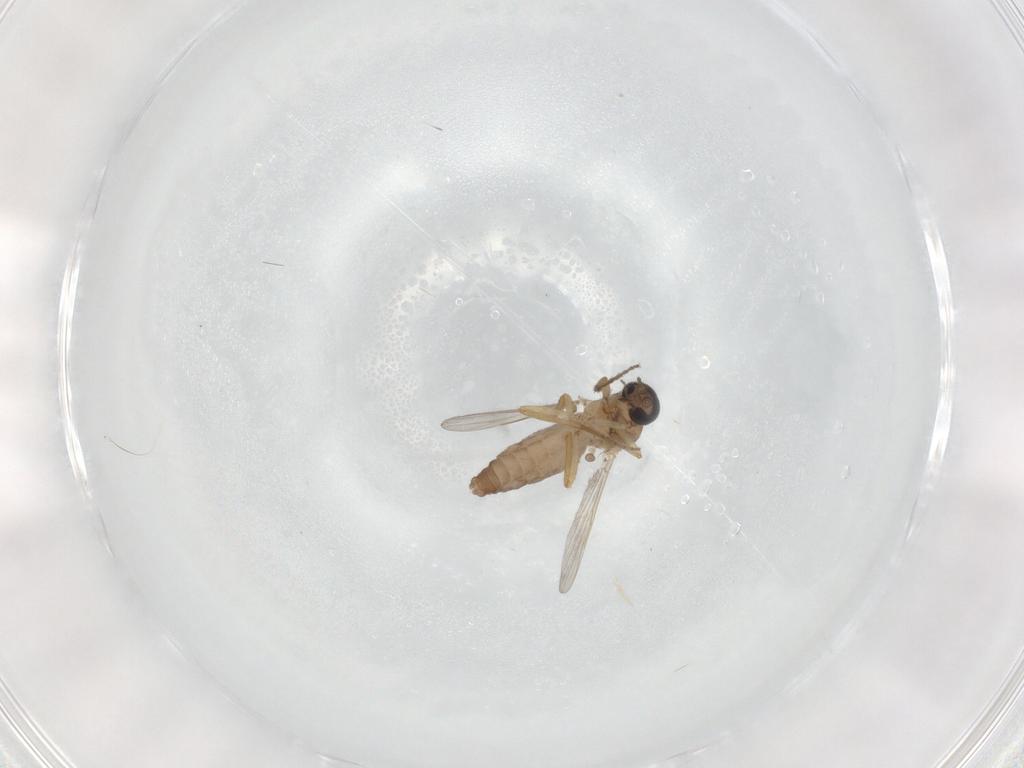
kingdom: Animalia
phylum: Arthropoda
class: Insecta
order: Diptera
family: Ceratopogonidae
